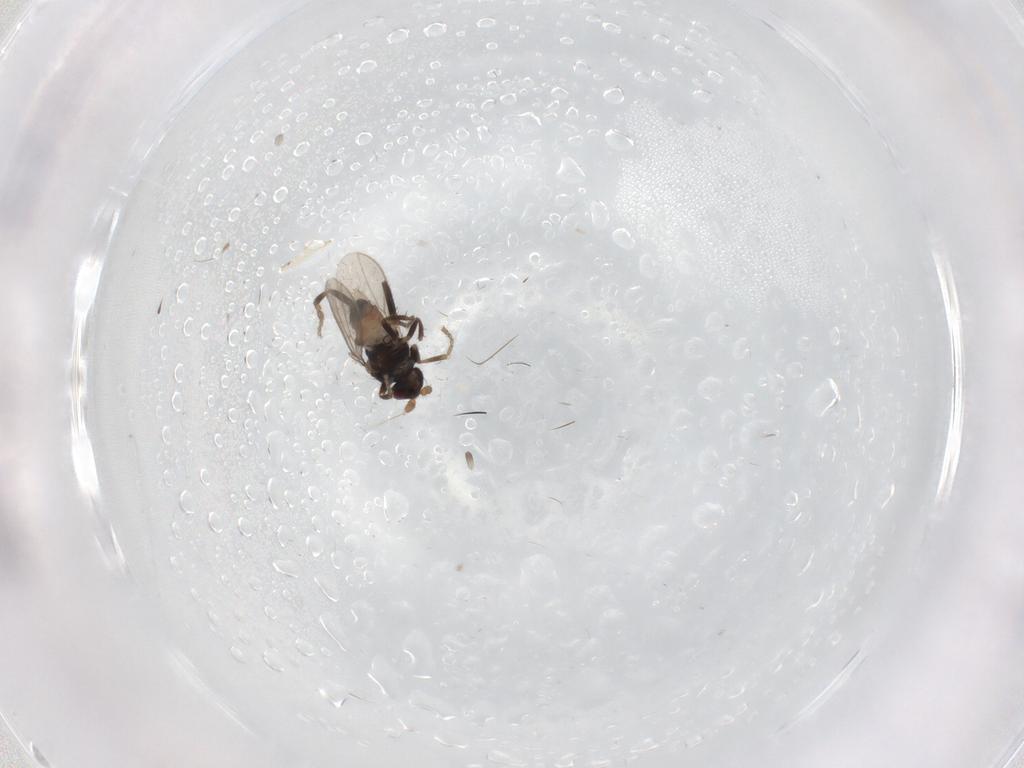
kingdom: Animalia
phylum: Arthropoda
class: Insecta
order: Diptera
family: Sphaeroceridae
